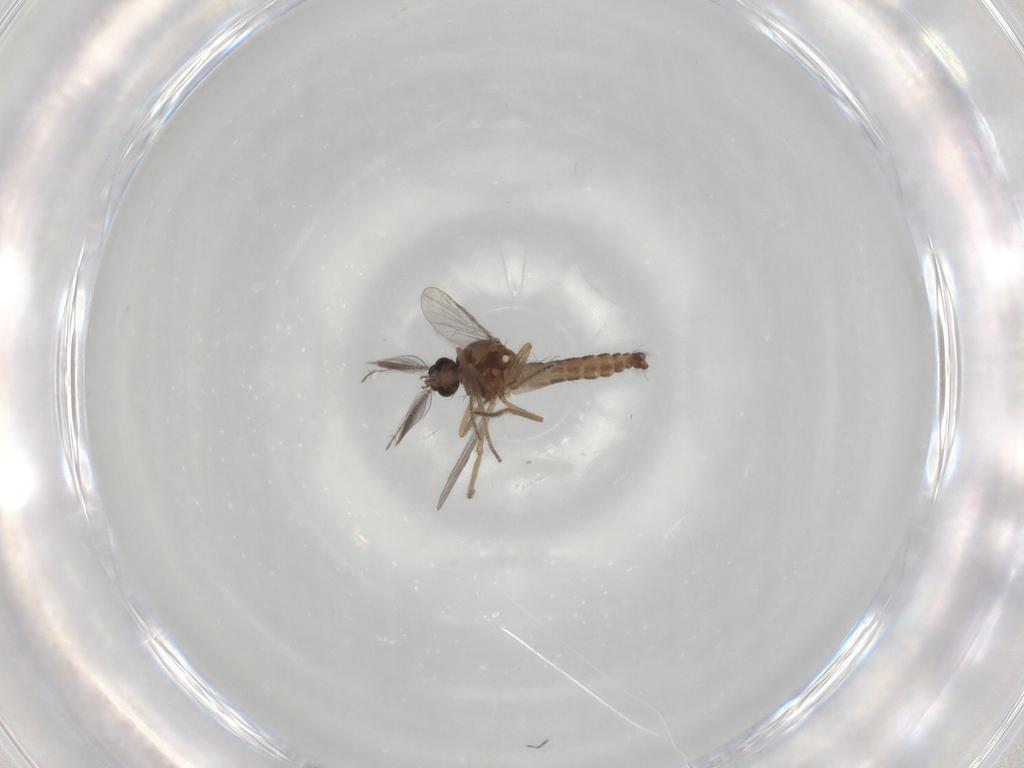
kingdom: Animalia
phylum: Arthropoda
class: Insecta
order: Diptera
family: Ceratopogonidae
